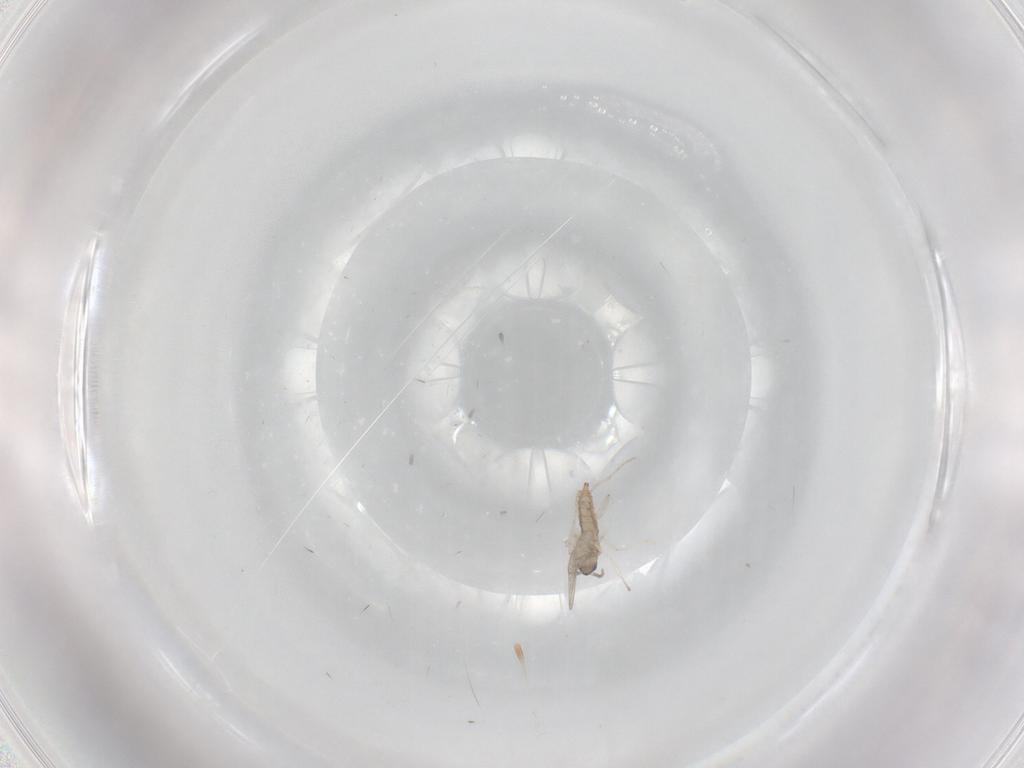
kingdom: Animalia
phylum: Arthropoda
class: Insecta
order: Diptera
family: Cecidomyiidae
